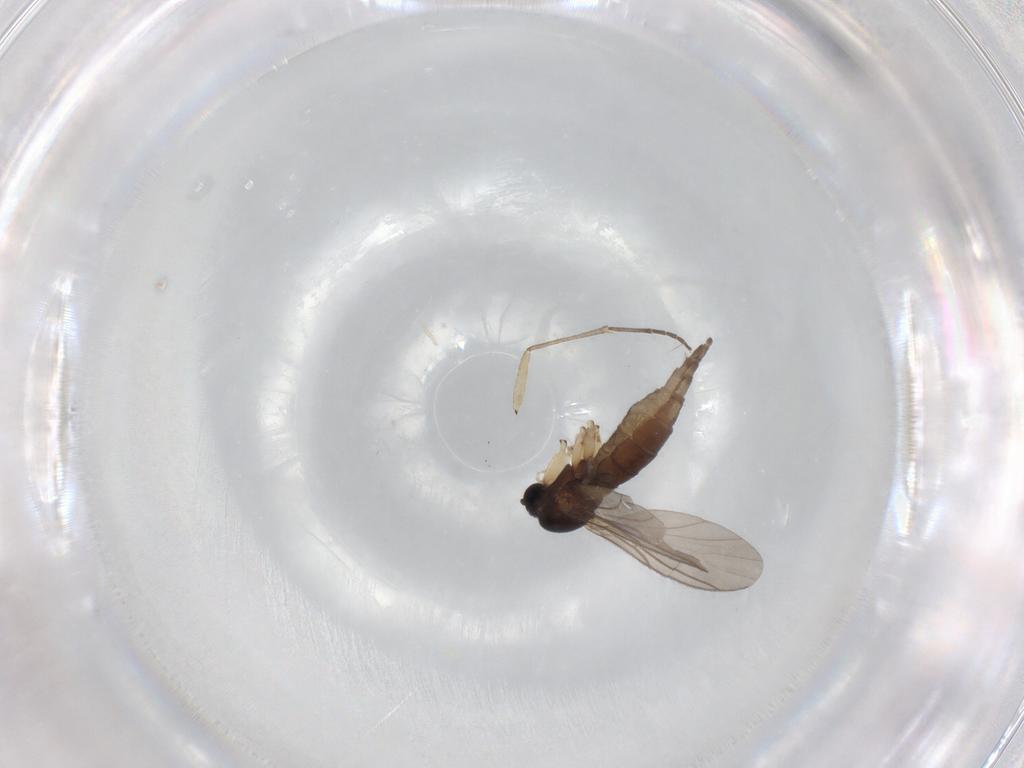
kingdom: Animalia
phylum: Arthropoda
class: Insecta
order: Diptera
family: Sciaridae
